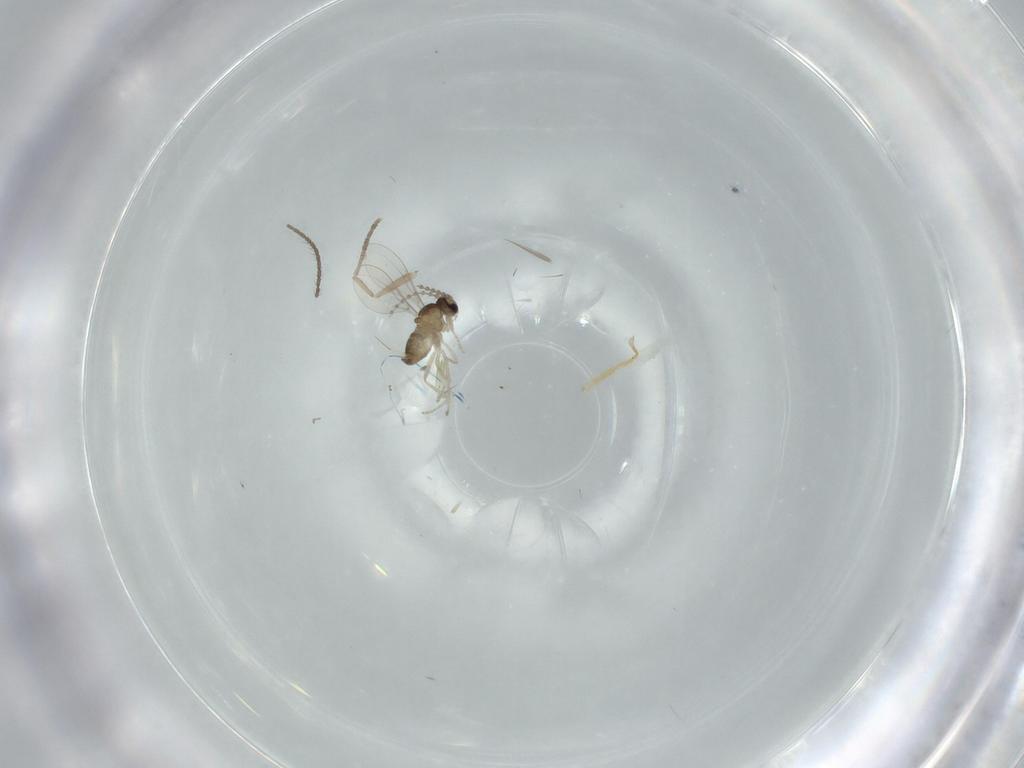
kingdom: Animalia
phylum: Arthropoda
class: Insecta
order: Diptera
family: Cecidomyiidae
